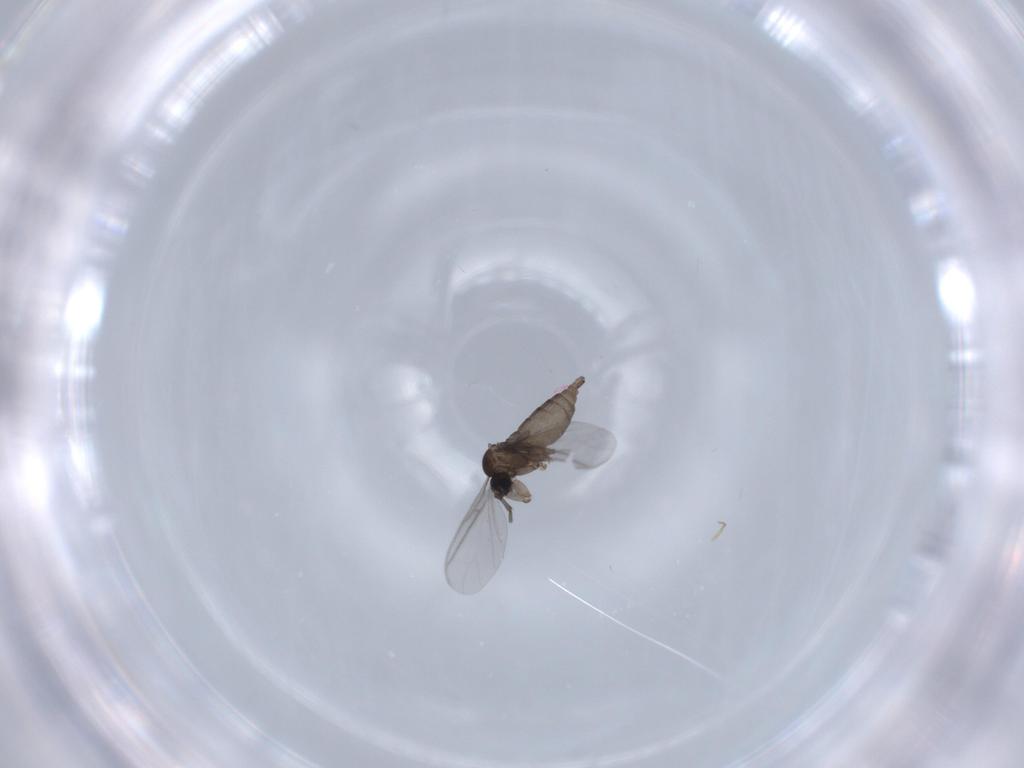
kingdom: Animalia
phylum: Arthropoda
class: Insecta
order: Diptera
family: Sciaridae
